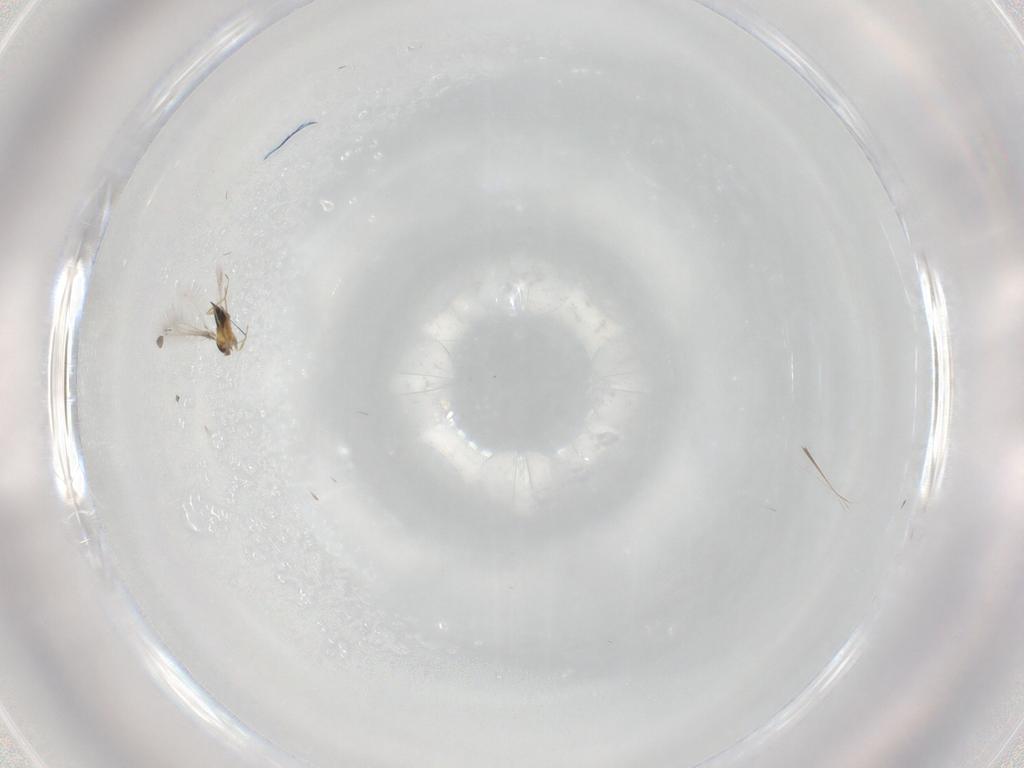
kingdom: Animalia
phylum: Arthropoda
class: Insecta
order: Hymenoptera
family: Mymaridae
